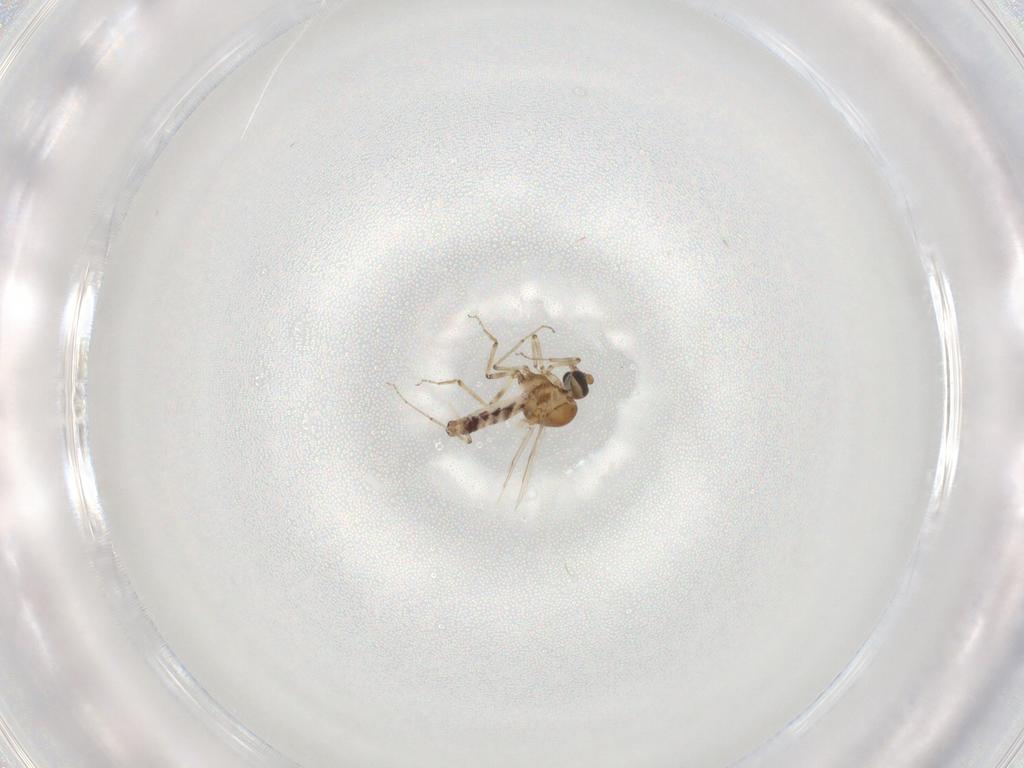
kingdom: Animalia
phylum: Arthropoda
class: Insecta
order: Diptera
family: Ceratopogonidae
